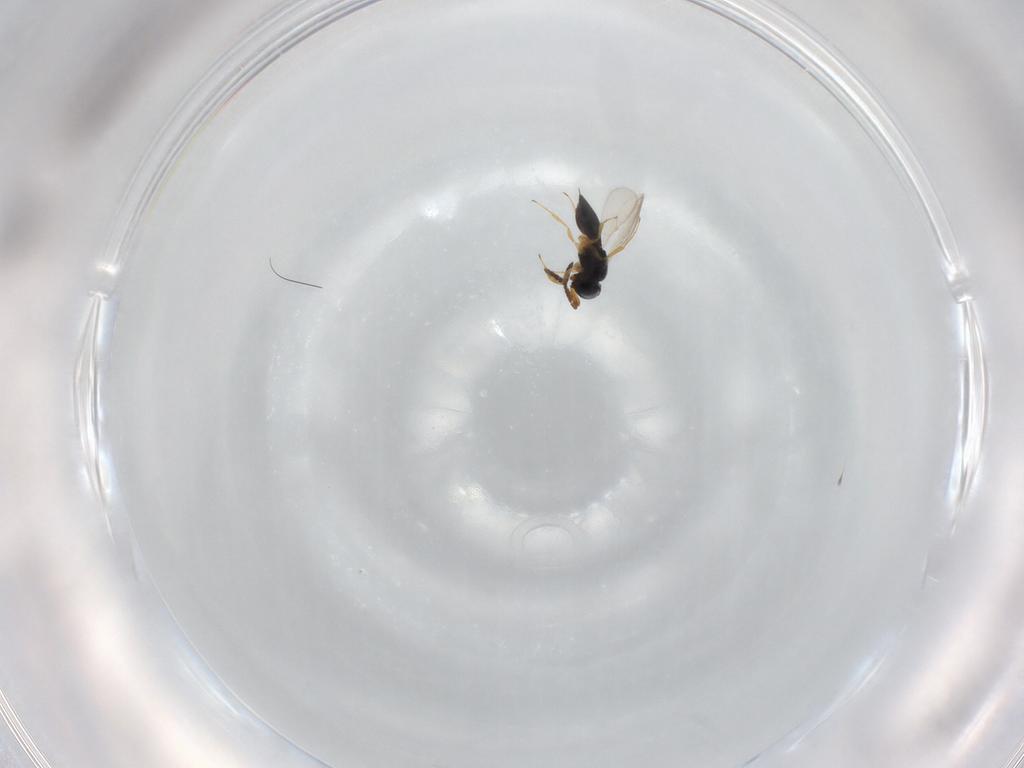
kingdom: Animalia
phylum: Arthropoda
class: Insecta
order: Hymenoptera
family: Scelionidae
